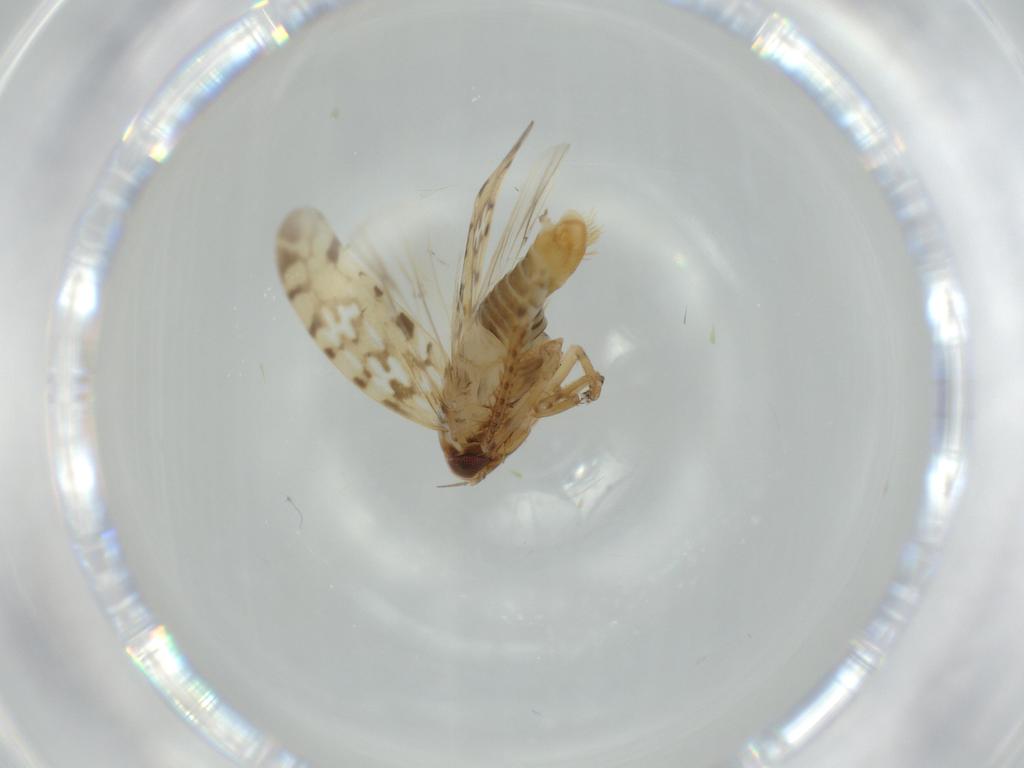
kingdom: Animalia
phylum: Arthropoda
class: Insecta
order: Hemiptera
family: Cicadellidae
